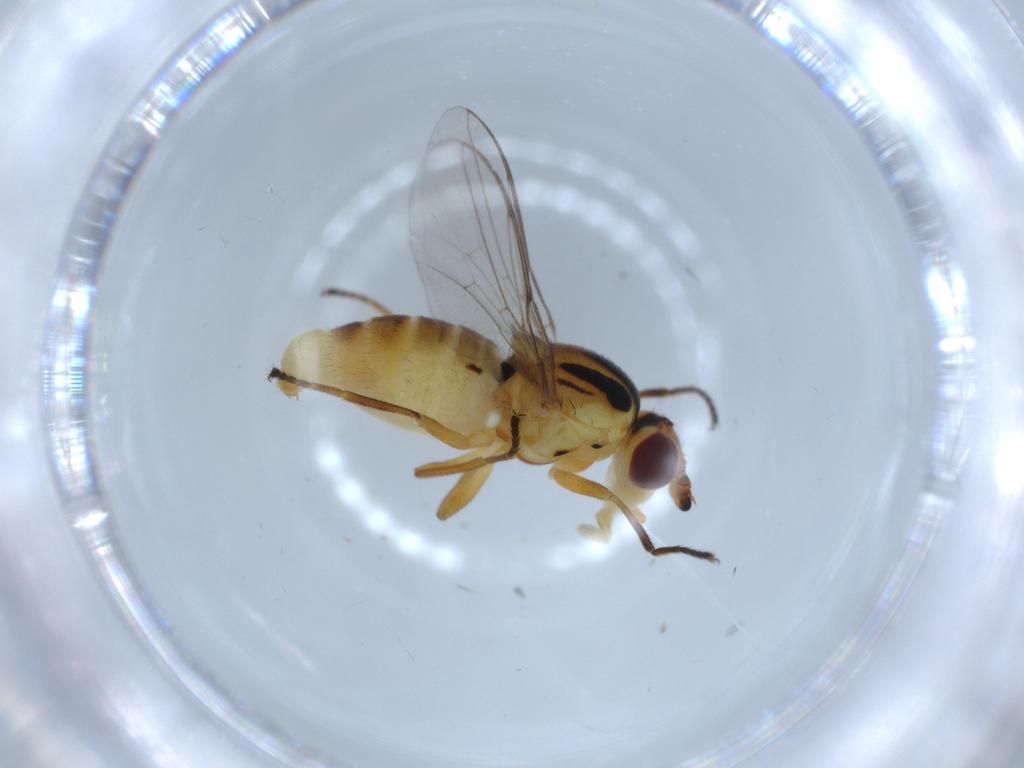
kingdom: Animalia
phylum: Arthropoda
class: Insecta
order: Diptera
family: Chloropidae
